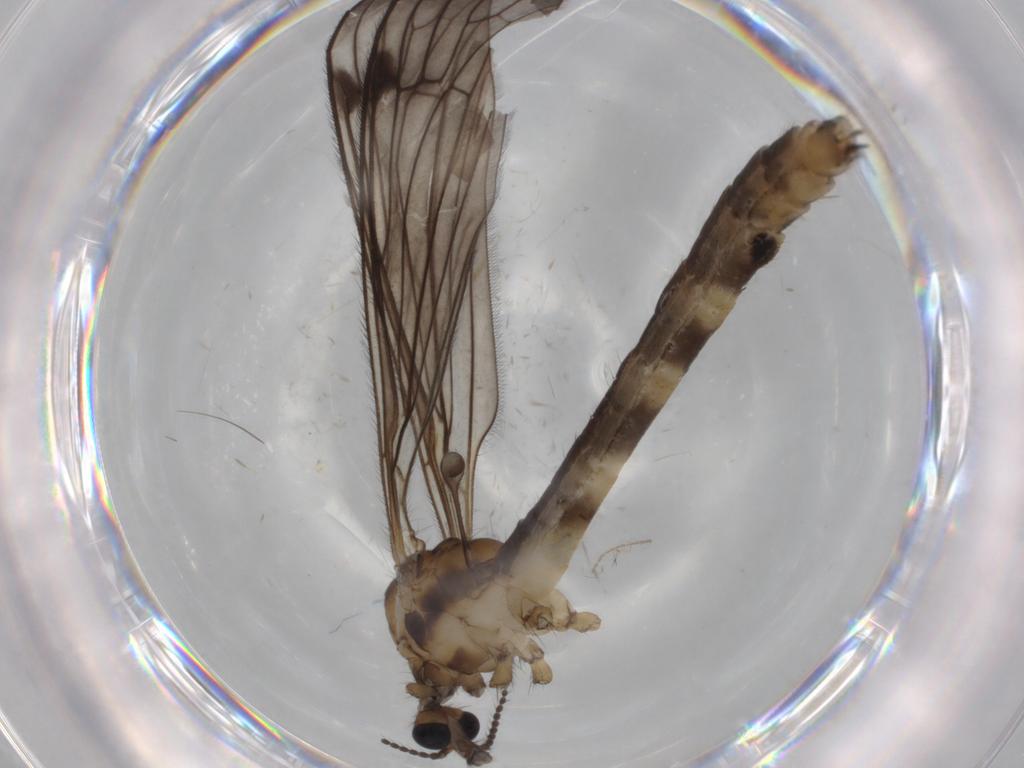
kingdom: Animalia
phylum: Arthropoda
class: Insecta
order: Diptera
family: Limoniidae
